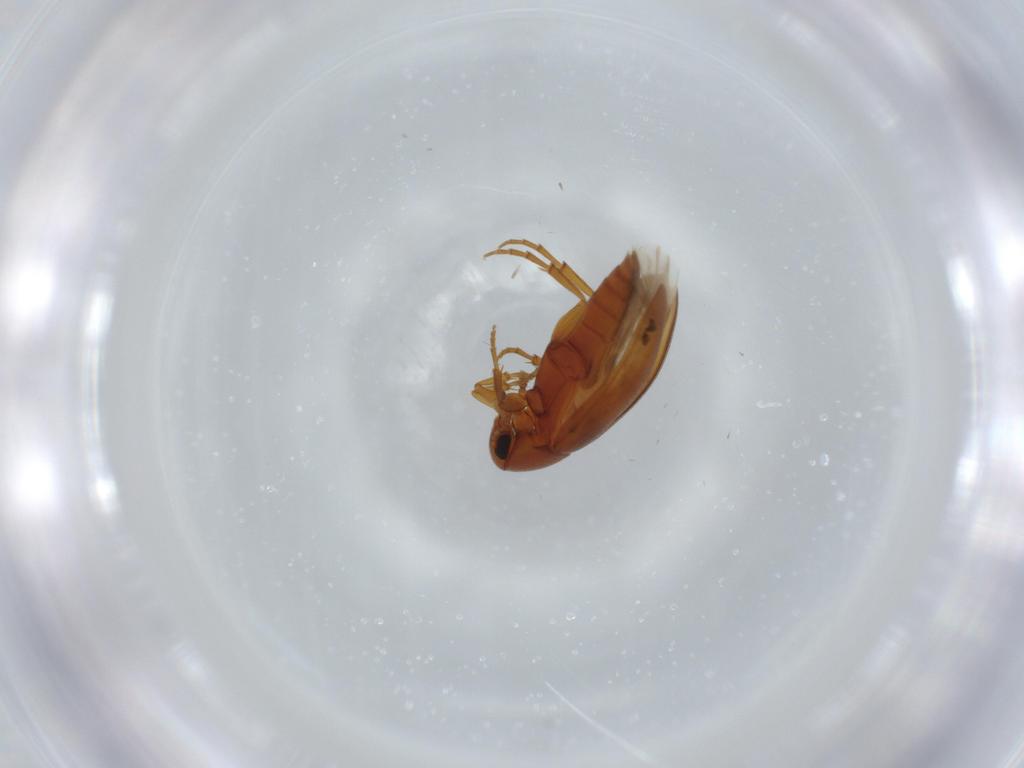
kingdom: Animalia
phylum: Arthropoda
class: Insecta
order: Coleoptera
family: Scraptiidae
